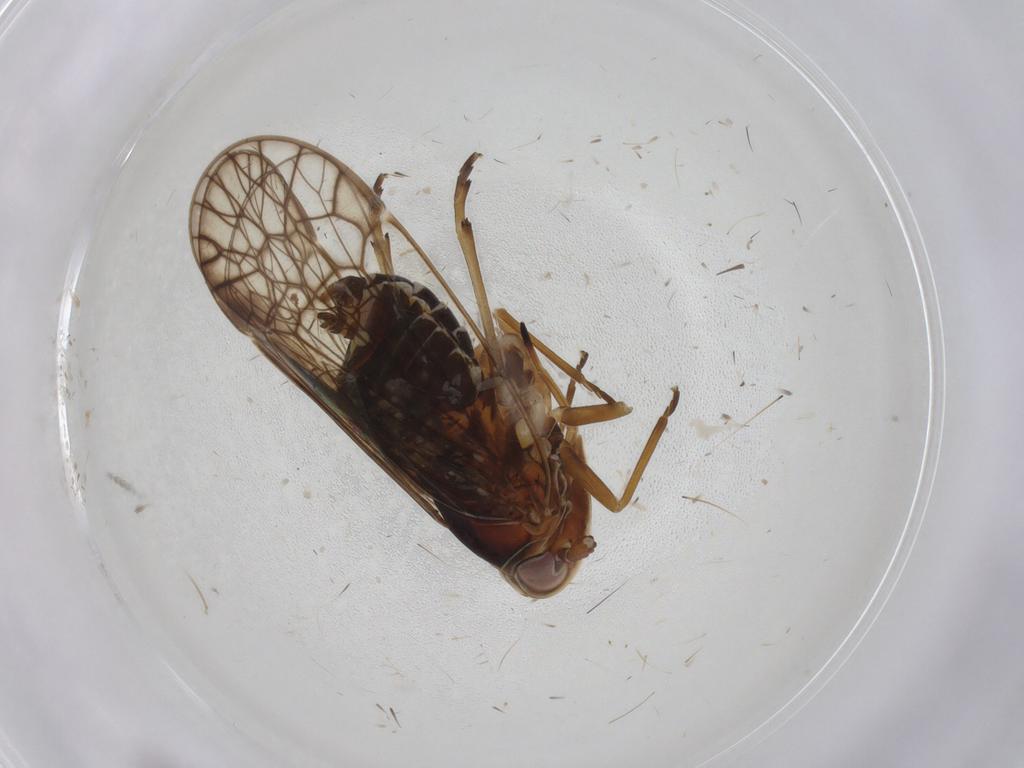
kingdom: Animalia
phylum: Arthropoda
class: Insecta
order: Hemiptera
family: Kinnaridae
